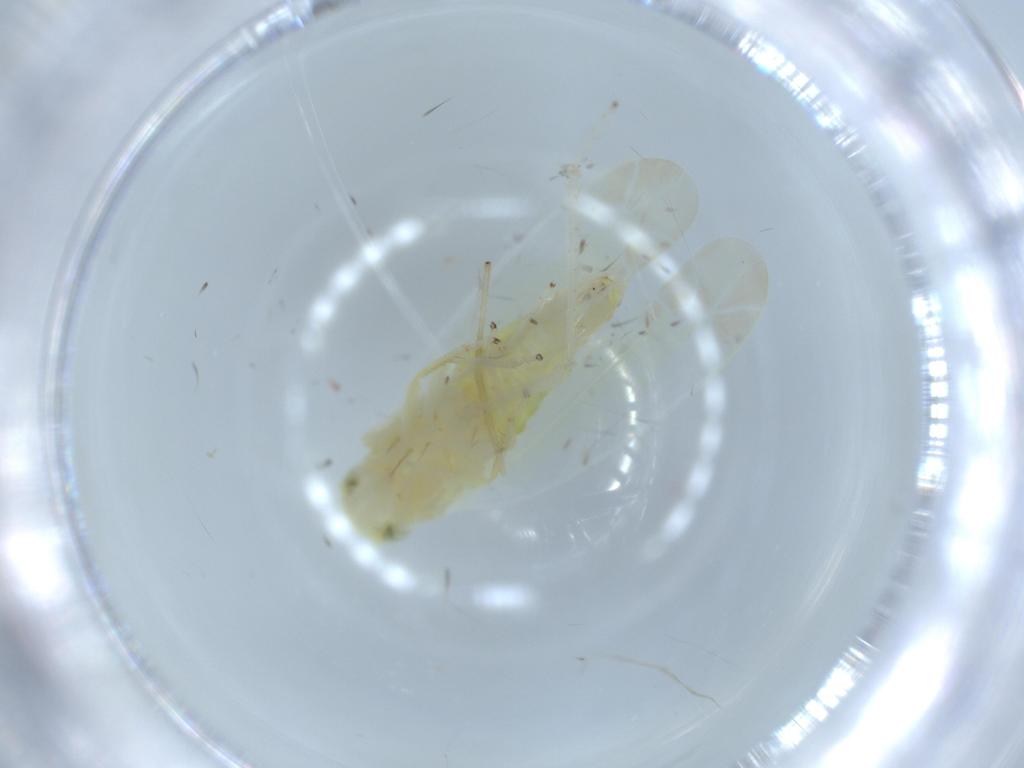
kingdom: Animalia
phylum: Arthropoda
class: Insecta
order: Hemiptera
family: Cicadellidae
